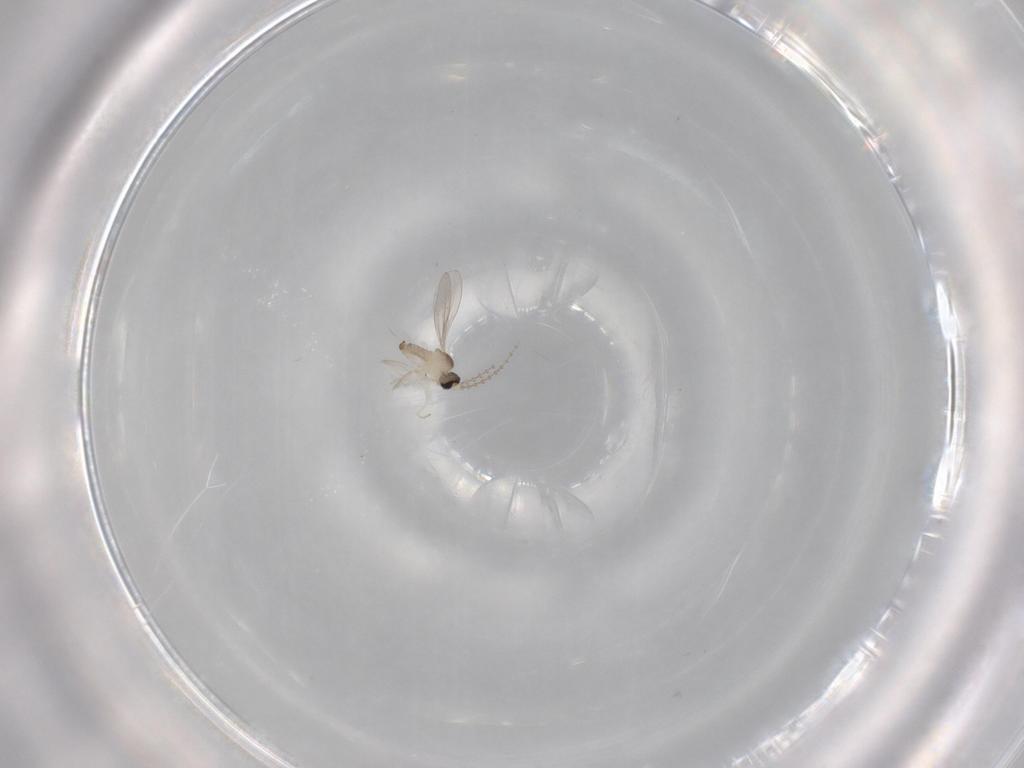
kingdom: Animalia
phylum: Arthropoda
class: Insecta
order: Diptera
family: Cecidomyiidae
